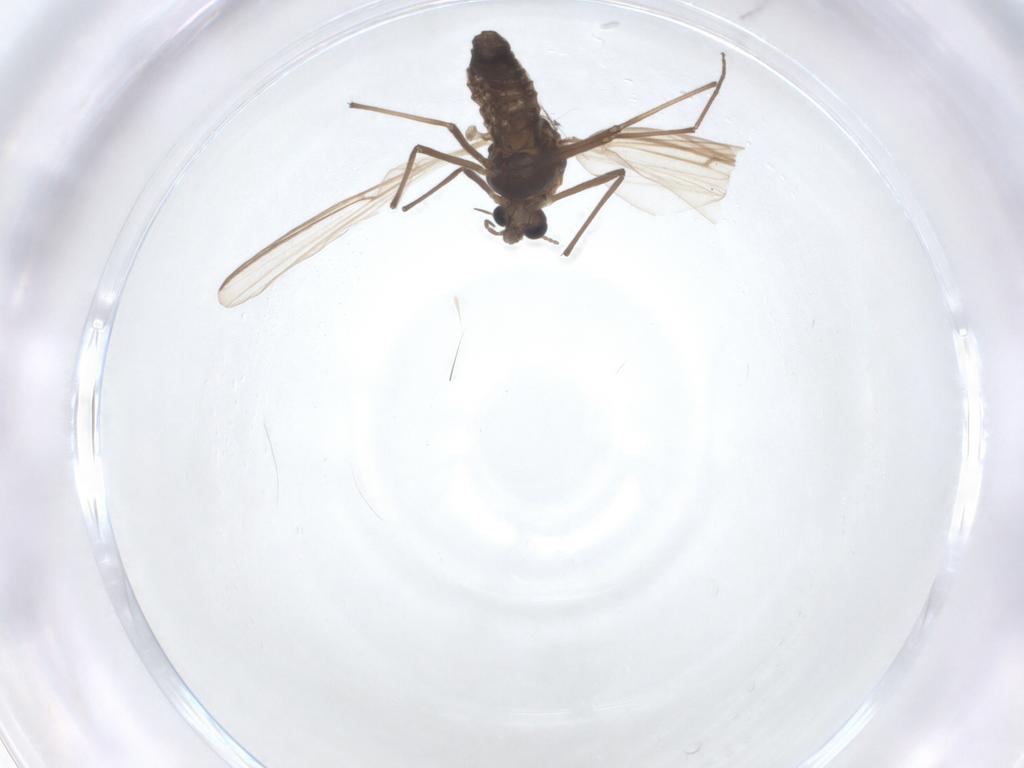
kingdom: Animalia
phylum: Arthropoda
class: Insecta
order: Diptera
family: Chironomidae
